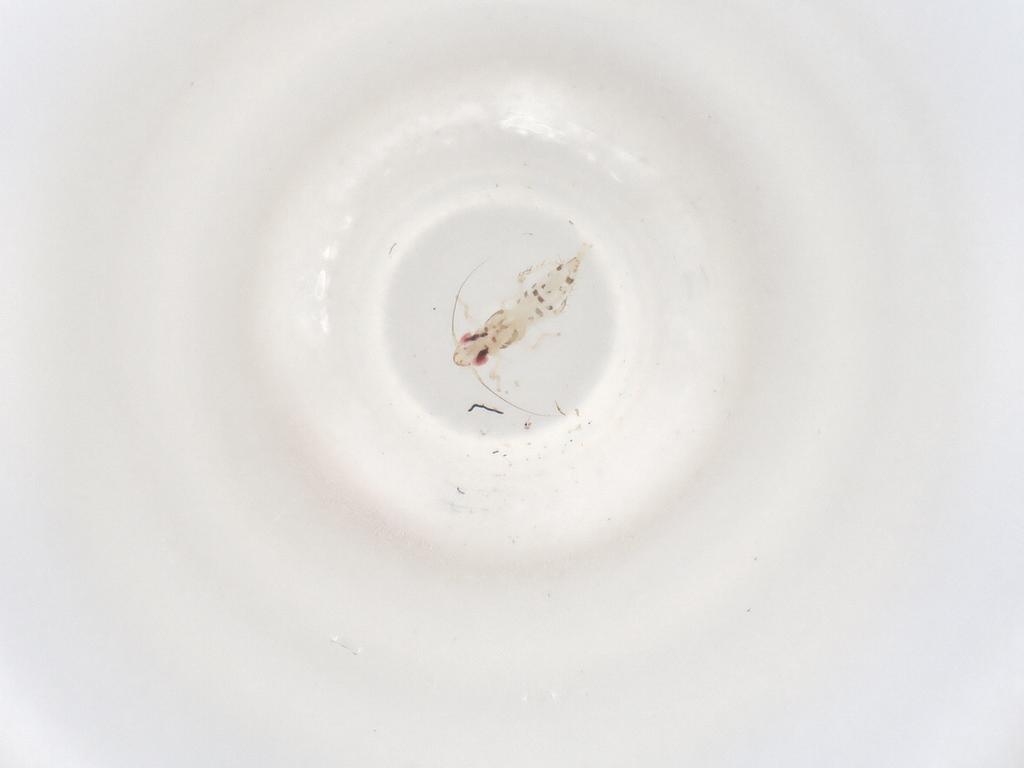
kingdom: Animalia
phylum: Arthropoda
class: Insecta
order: Hemiptera
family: Cicadellidae
